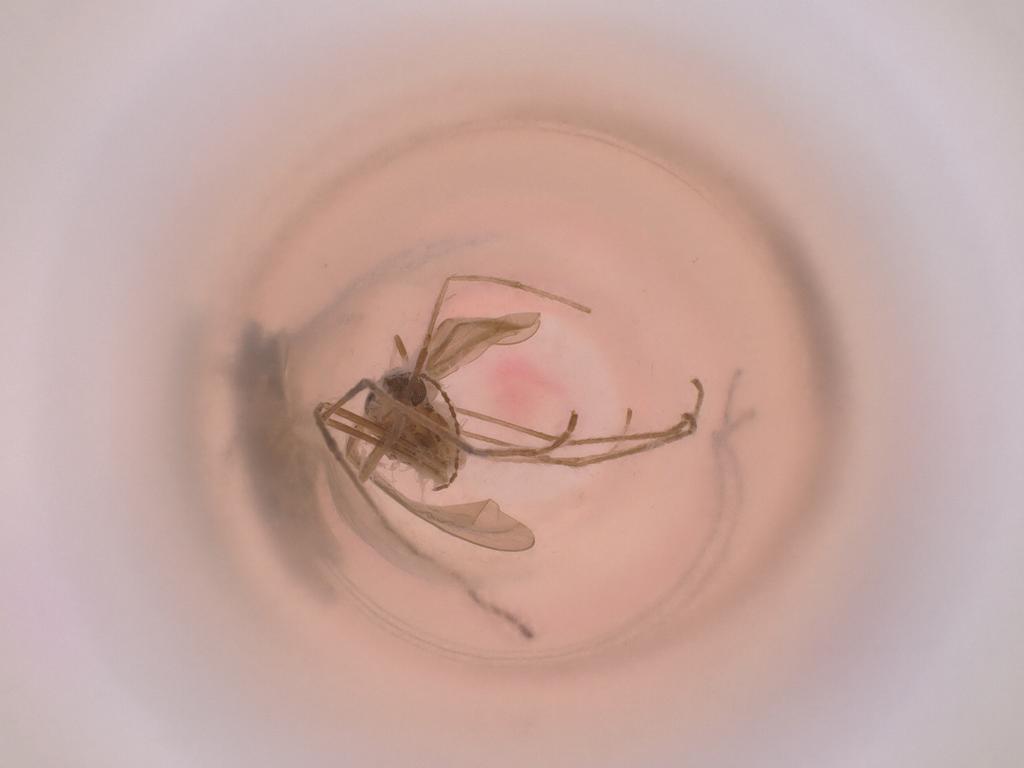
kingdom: Animalia
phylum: Arthropoda
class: Insecta
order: Diptera
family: Cecidomyiidae
